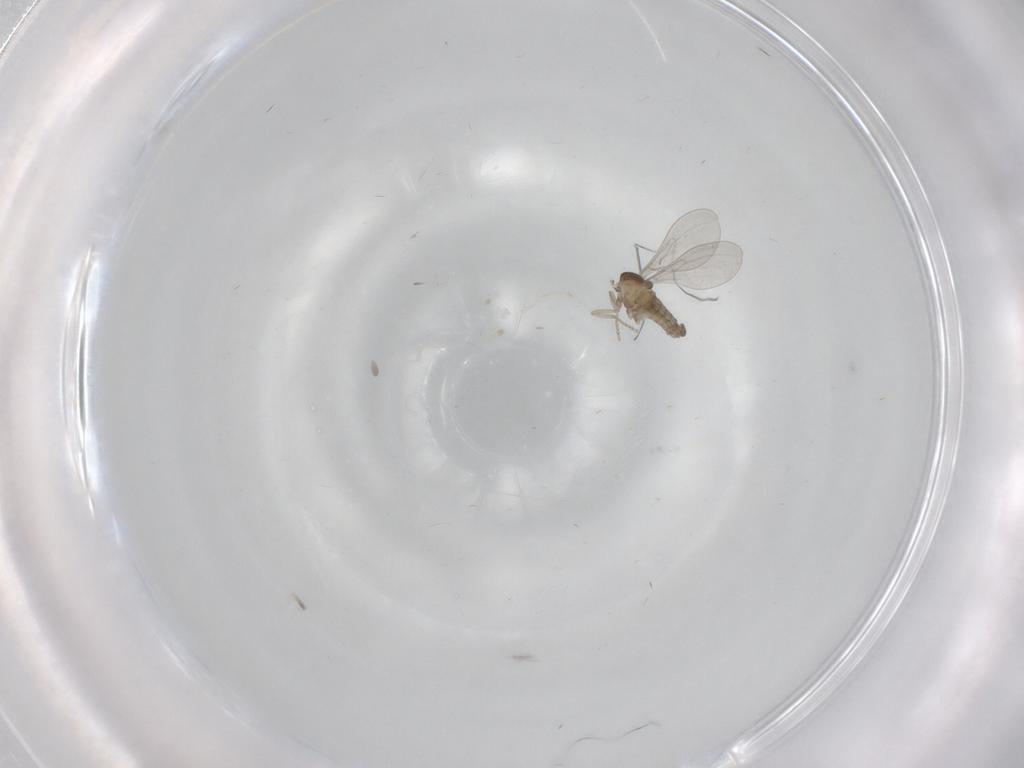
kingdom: Animalia
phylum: Arthropoda
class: Insecta
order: Diptera
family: Cecidomyiidae
